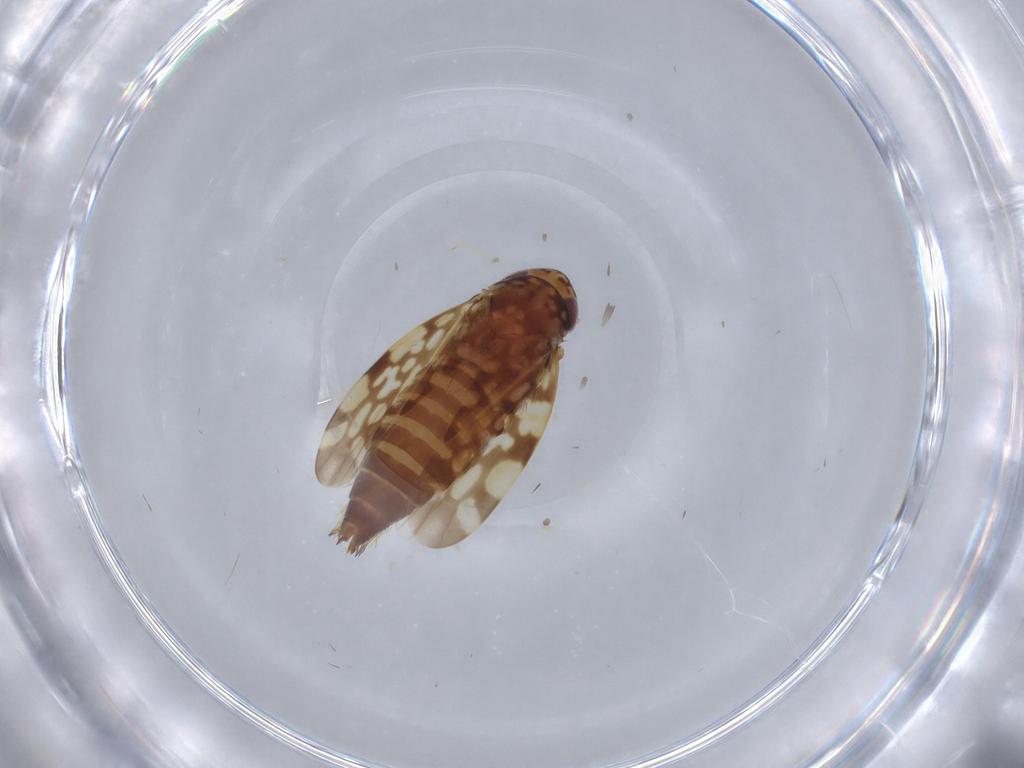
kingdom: Animalia
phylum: Arthropoda
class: Insecta
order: Hemiptera
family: Cicadellidae
